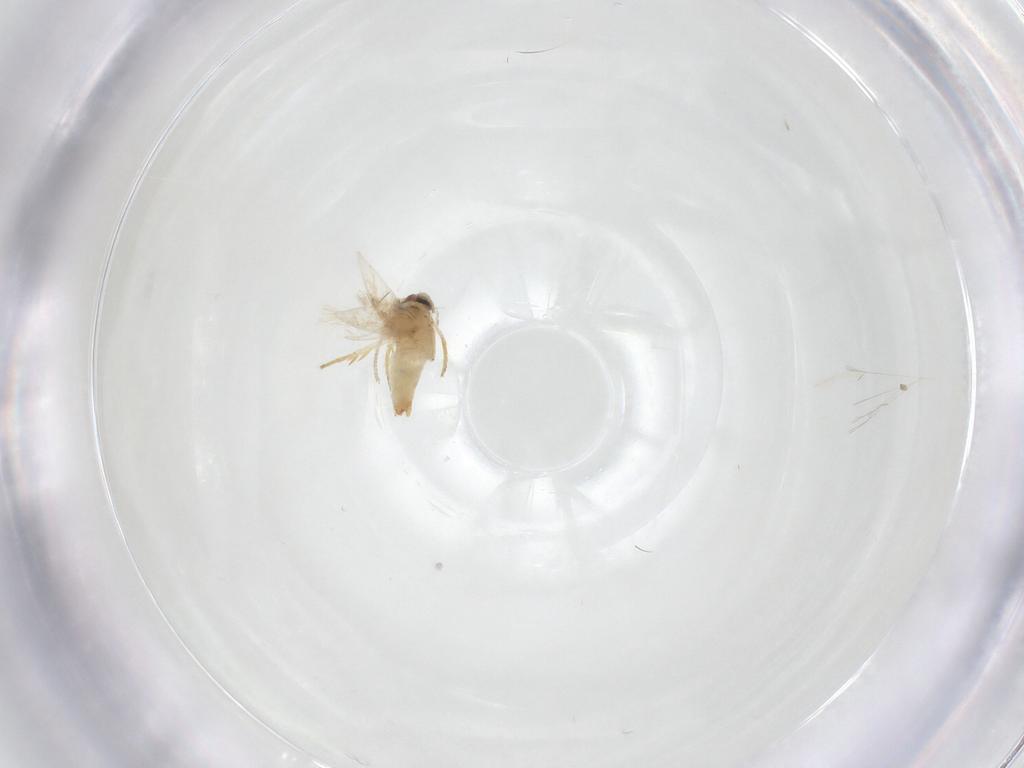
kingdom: Animalia
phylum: Arthropoda
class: Insecta
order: Lepidoptera
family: Crambidae
